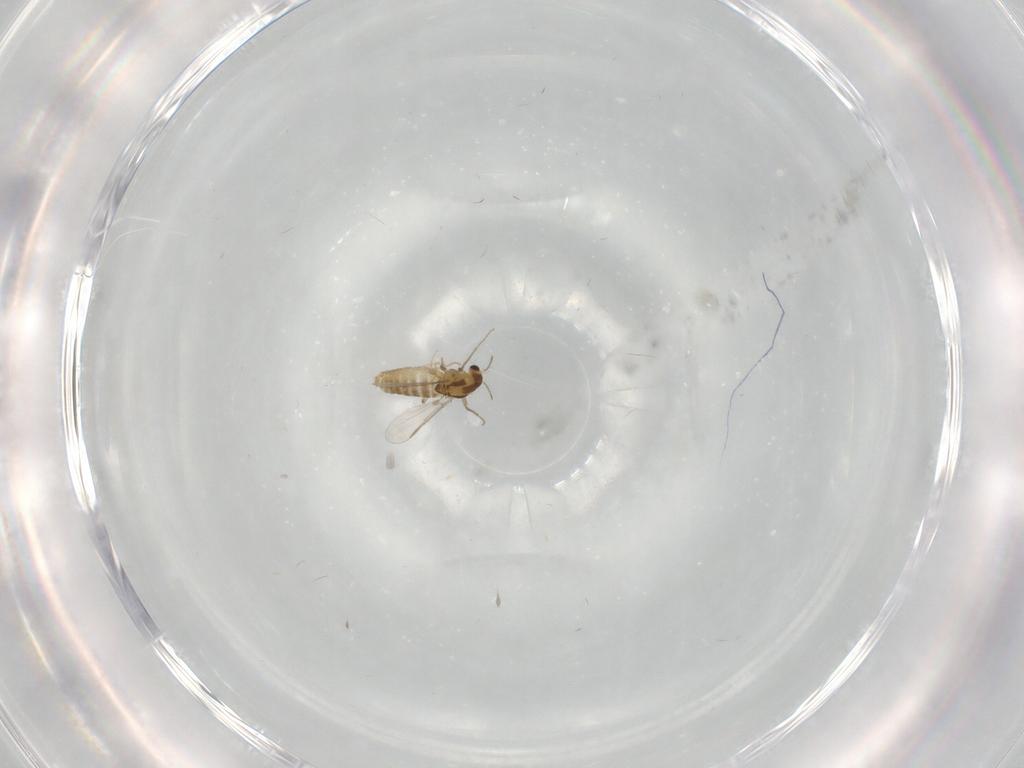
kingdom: Animalia
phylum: Arthropoda
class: Insecta
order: Diptera
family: Chironomidae
